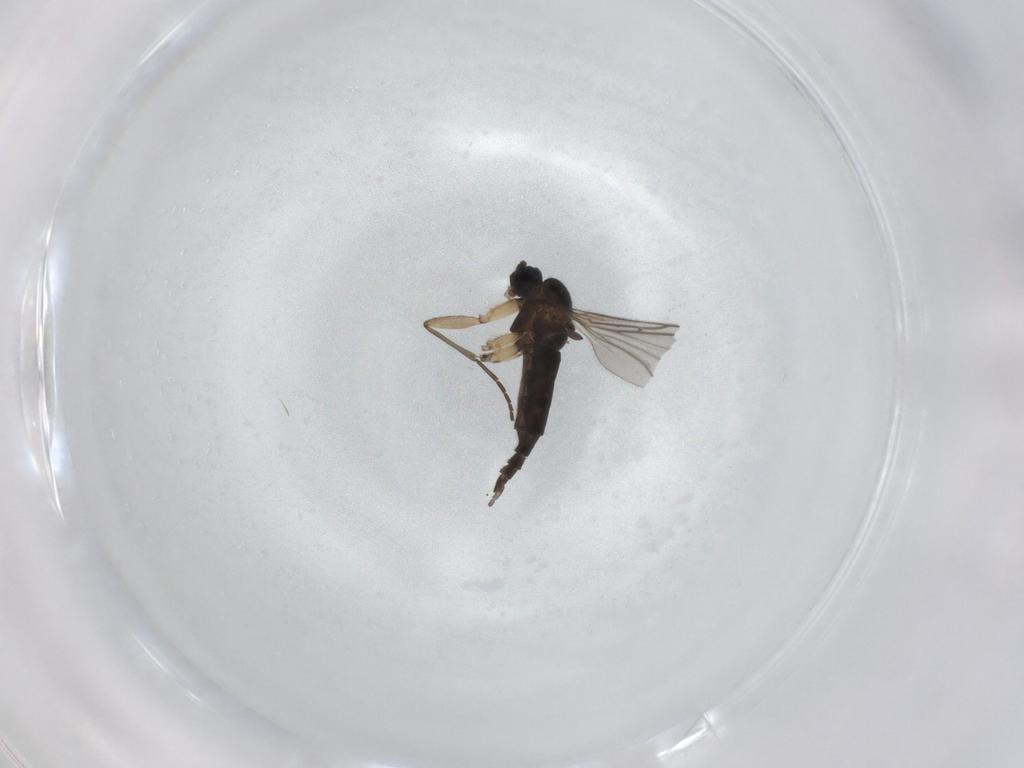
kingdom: Animalia
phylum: Arthropoda
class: Insecta
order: Diptera
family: Sciaridae
